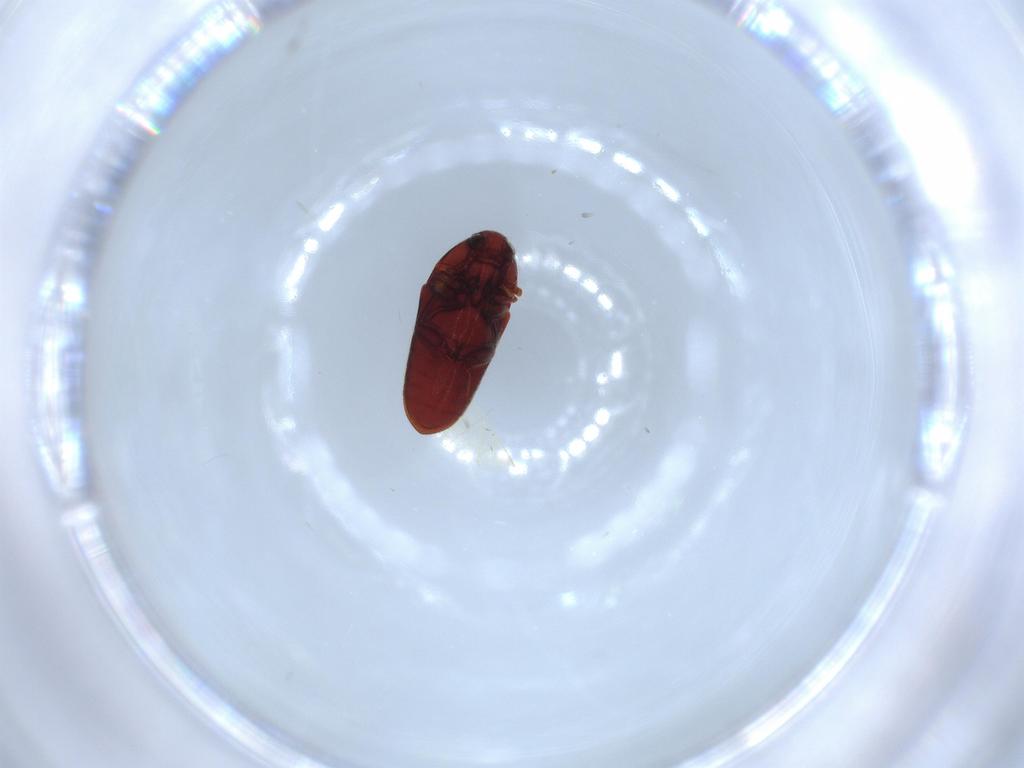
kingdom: Animalia
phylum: Arthropoda
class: Insecta
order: Coleoptera
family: Throscidae
